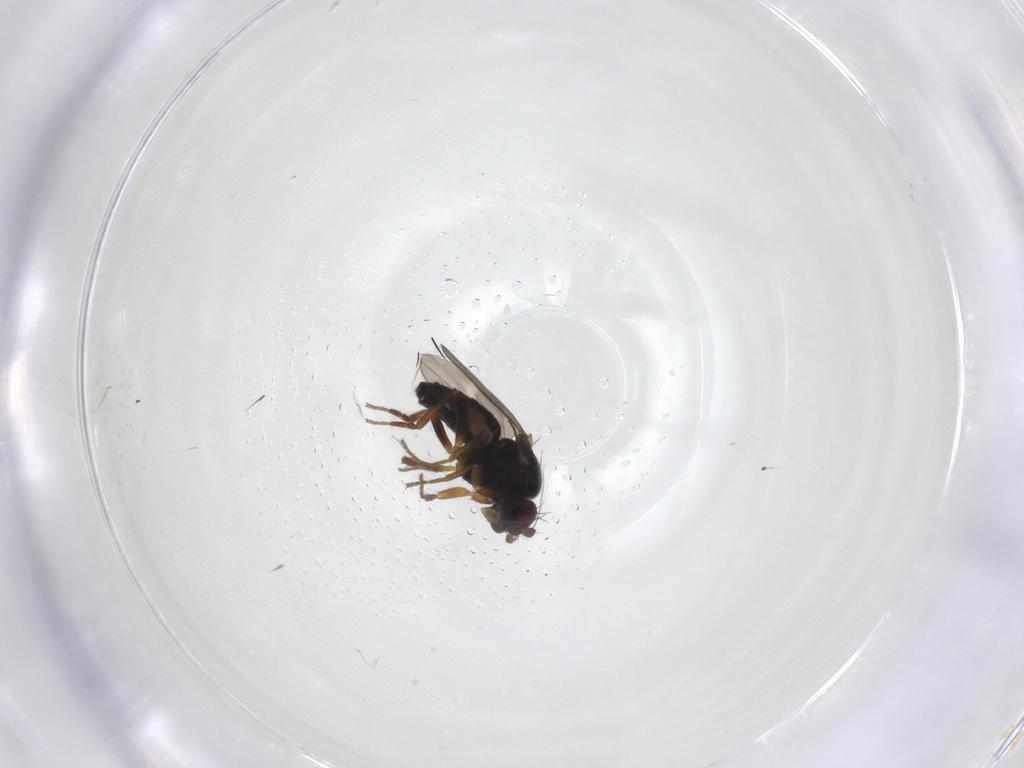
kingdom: Animalia
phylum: Arthropoda
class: Insecta
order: Diptera
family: Sphaeroceridae
